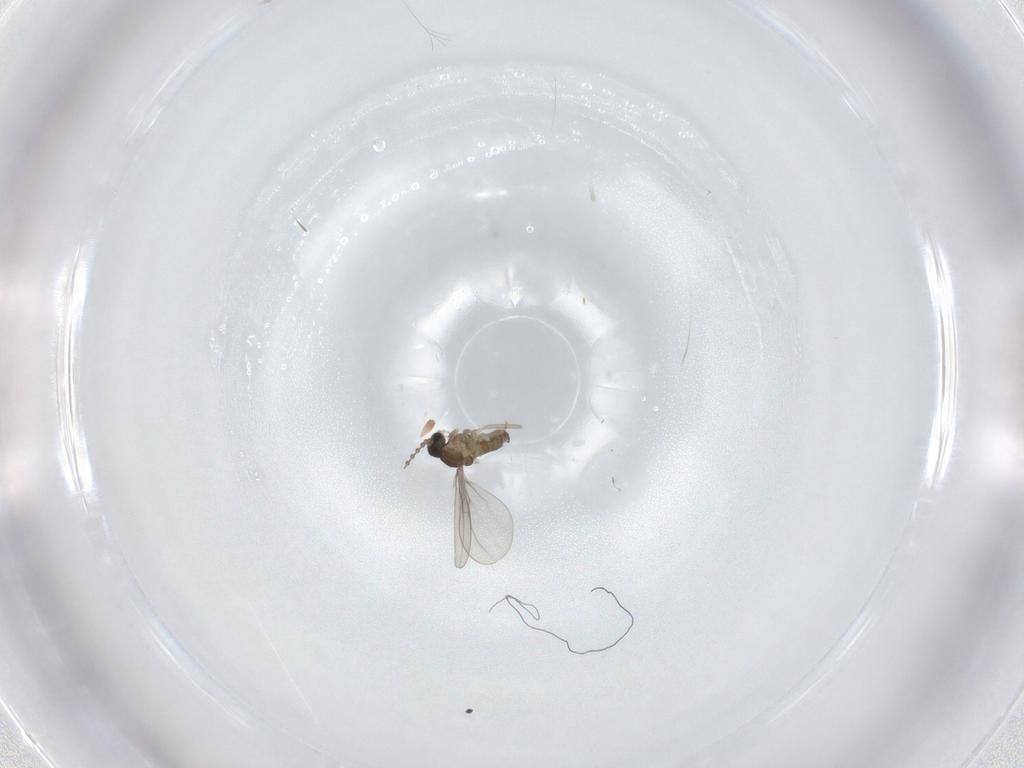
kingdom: Animalia
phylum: Arthropoda
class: Insecta
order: Diptera
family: Cecidomyiidae
